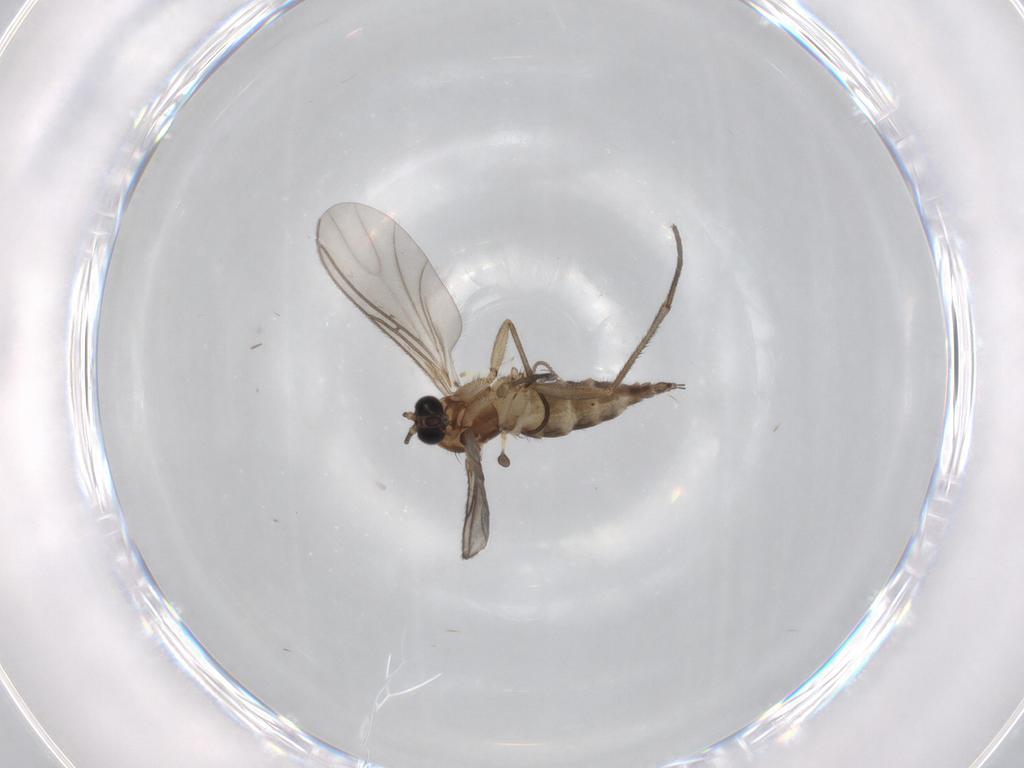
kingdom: Animalia
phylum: Arthropoda
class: Insecta
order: Diptera
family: Sciaridae
